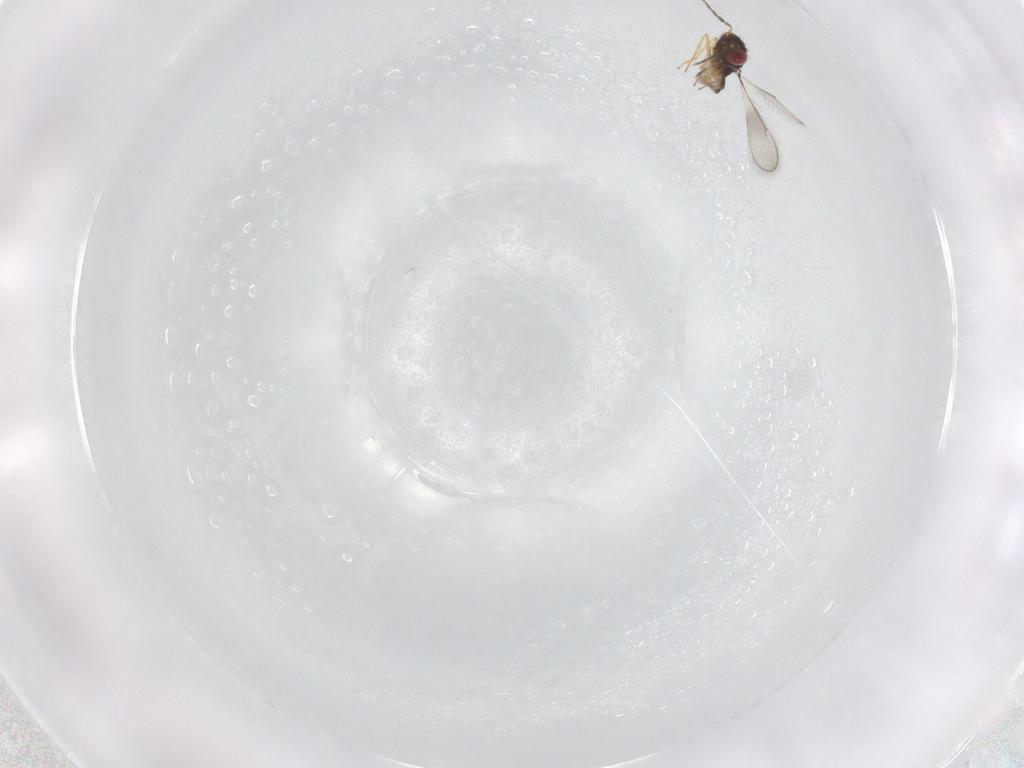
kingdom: Animalia
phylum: Arthropoda
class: Insecta
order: Hymenoptera
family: Eulophidae
